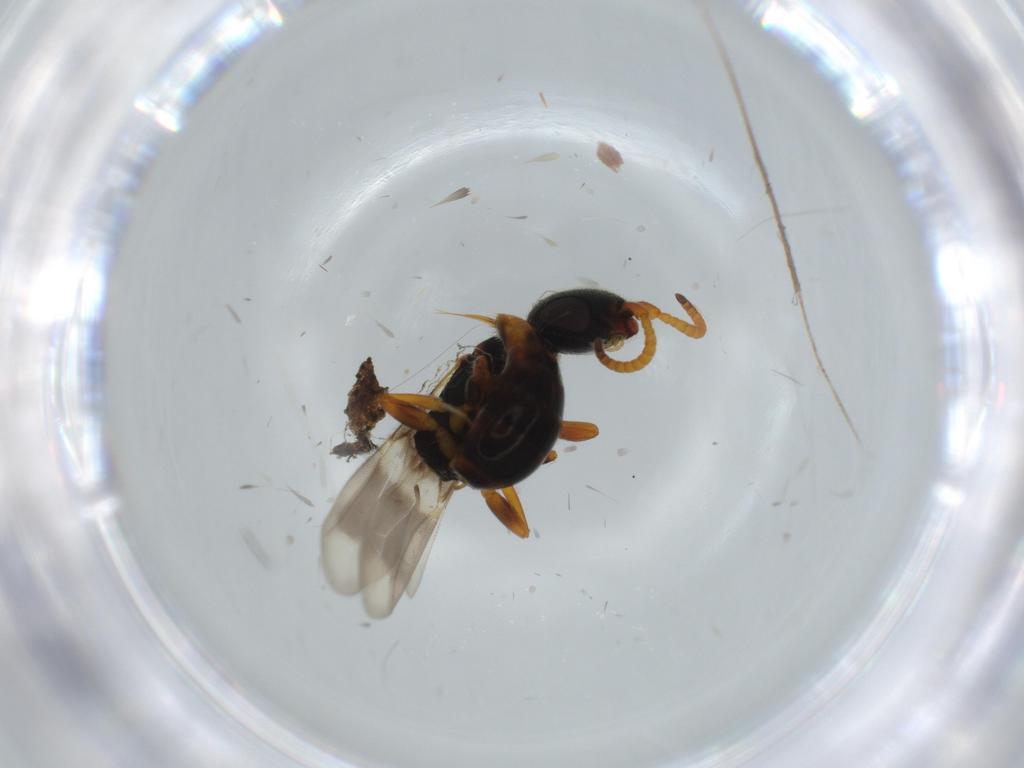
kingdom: Animalia
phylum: Arthropoda
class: Insecta
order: Hymenoptera
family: Bethylidae
